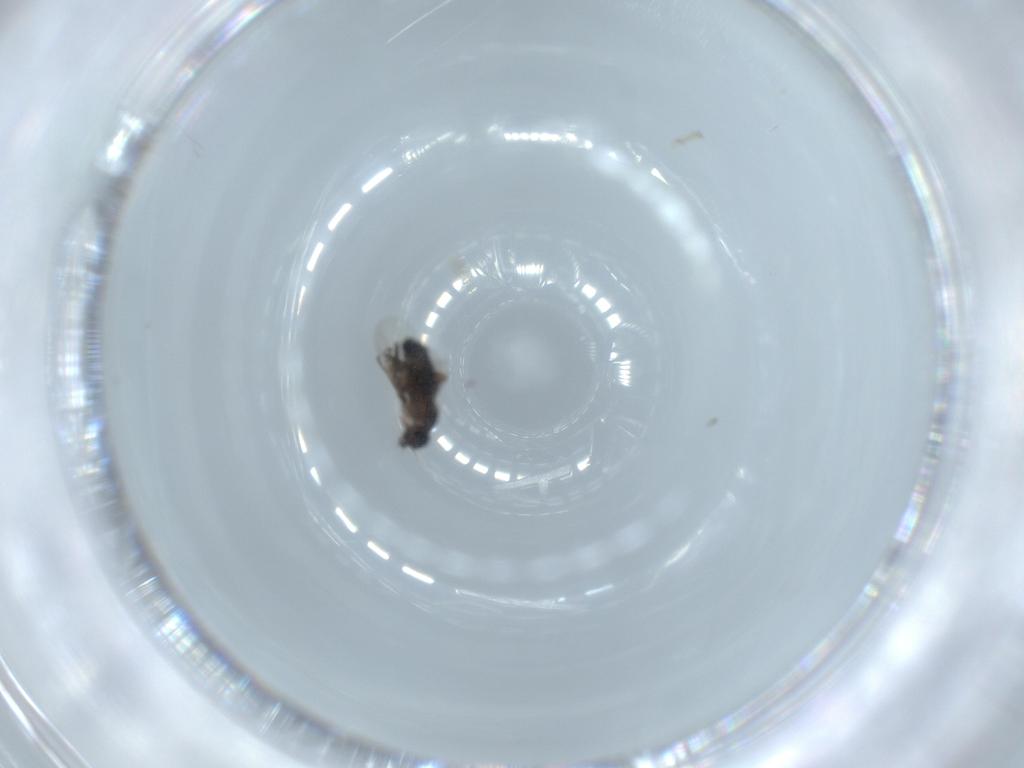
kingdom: Animalia
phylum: Arthropoda
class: Insecta
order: Diptera
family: Phoridae
